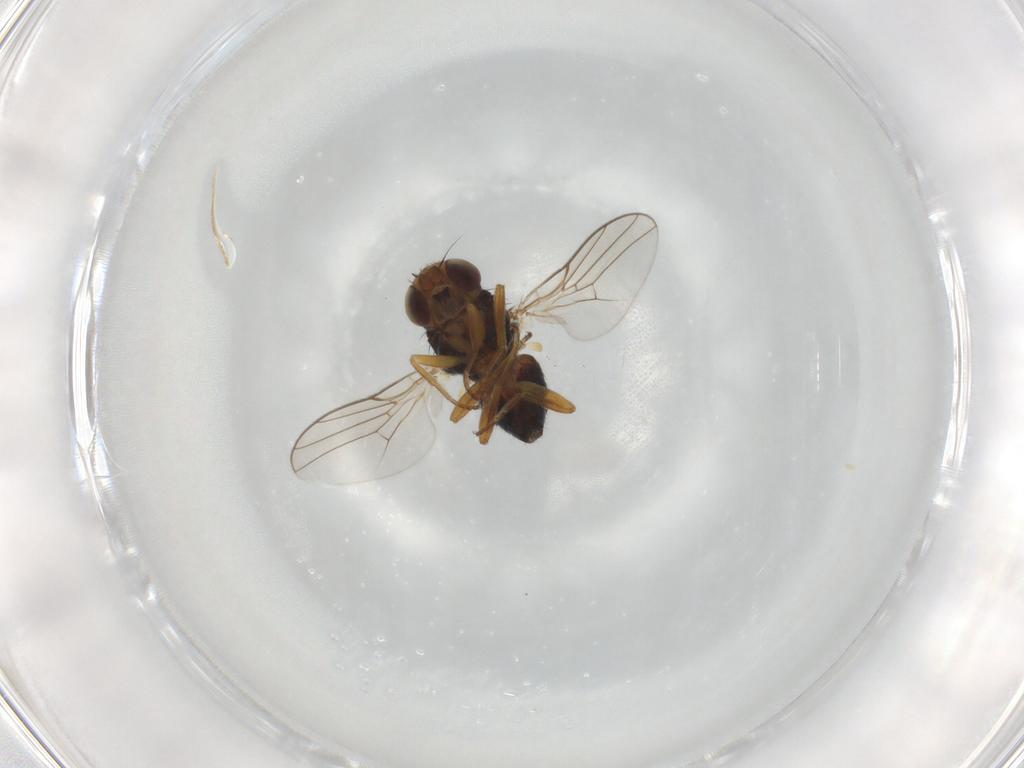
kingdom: Animalia
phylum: Arthropoda
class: Insecta
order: Diptera
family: Chloropidae
